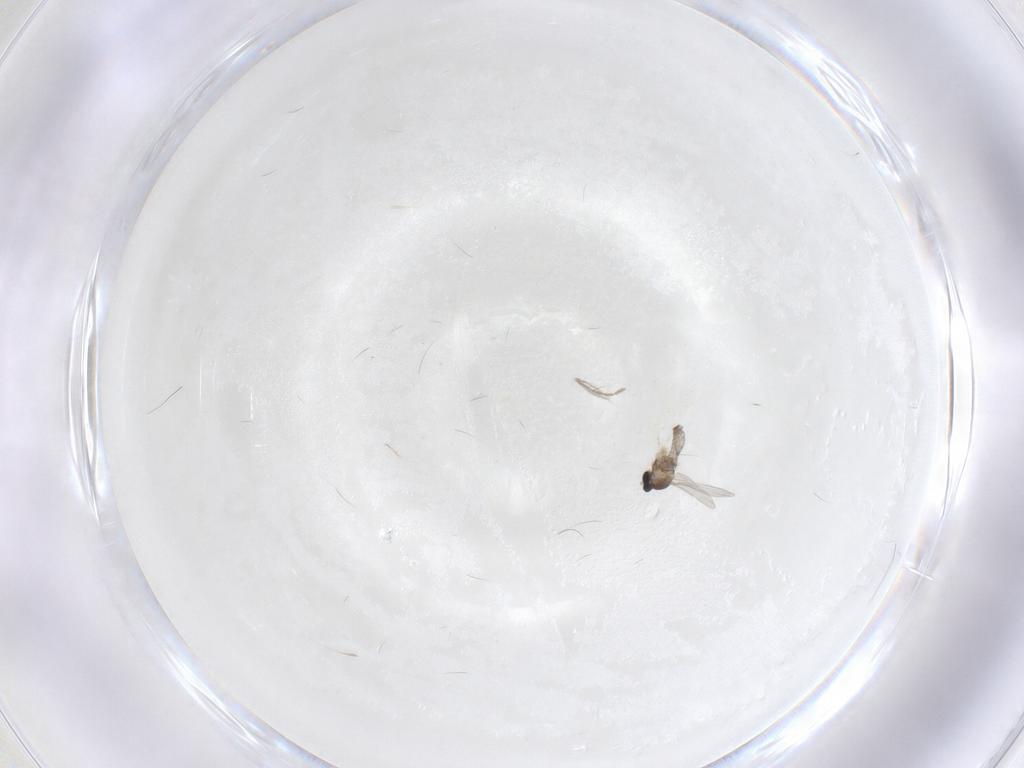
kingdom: Animalia
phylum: Arthropoda
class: Insecta
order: Diptera
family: Cecidomyiidae
